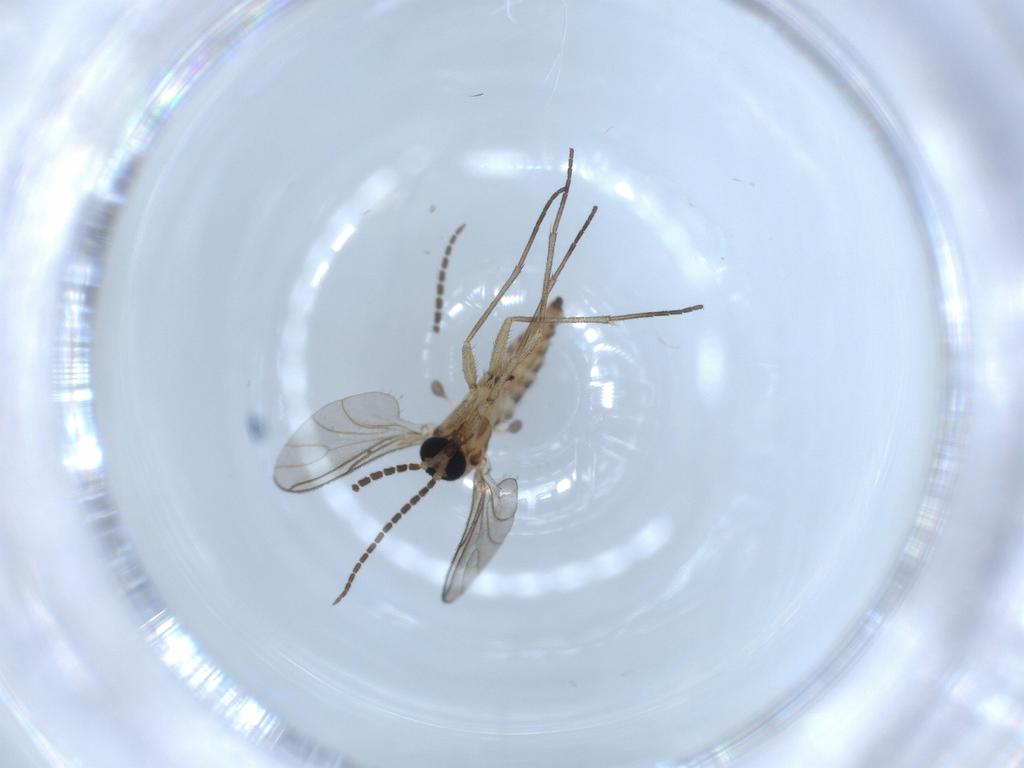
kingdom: Animalia
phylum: Arthropoda
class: Insecta
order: Diptera
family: Sciaridae
